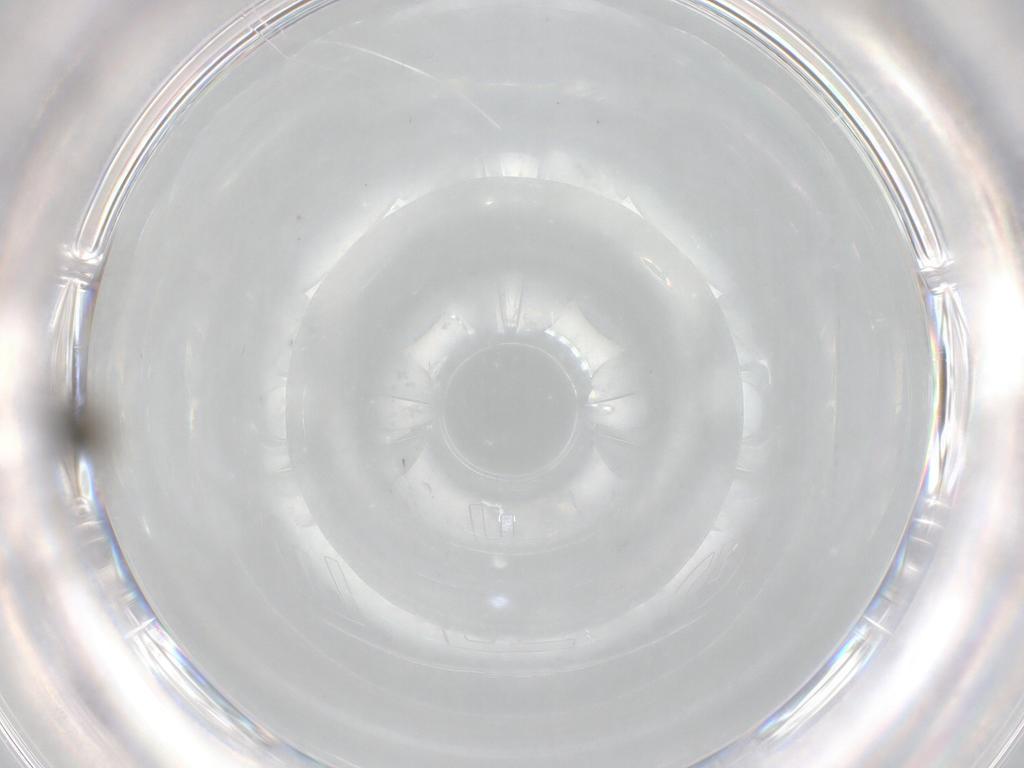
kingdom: Animalia
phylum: Arthropoda
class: Insecta
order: Diptera
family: Cecidomyiidae
